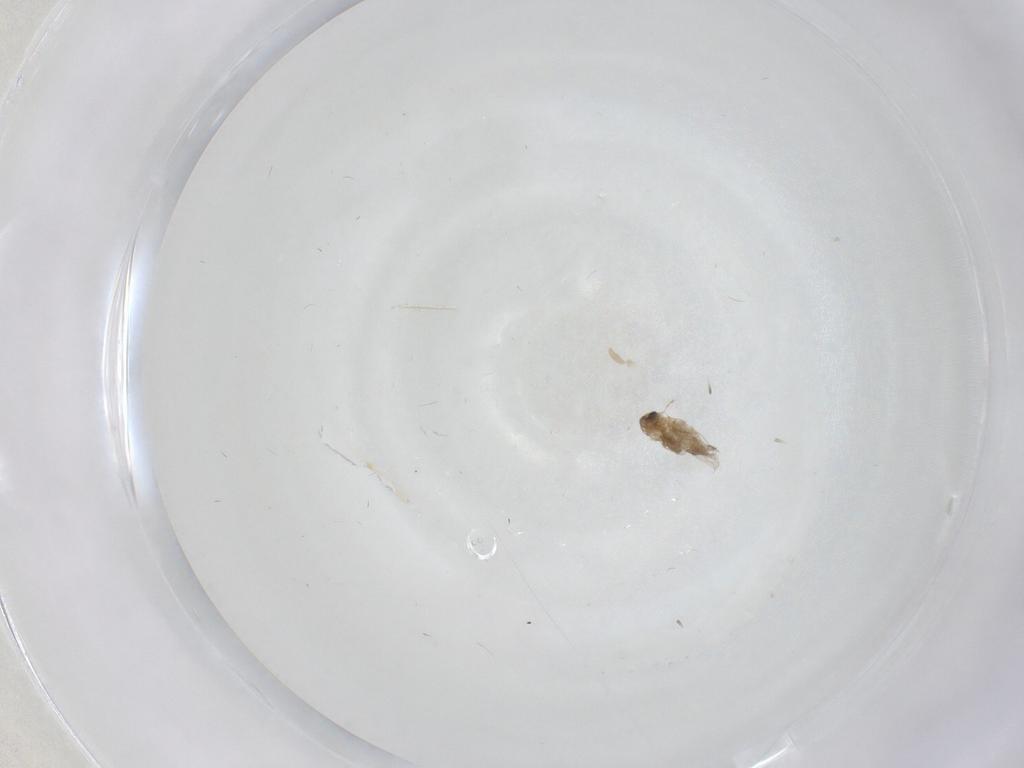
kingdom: Animalia
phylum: Arthropoda
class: Insecta
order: Diptera
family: Cecidomyiidae
